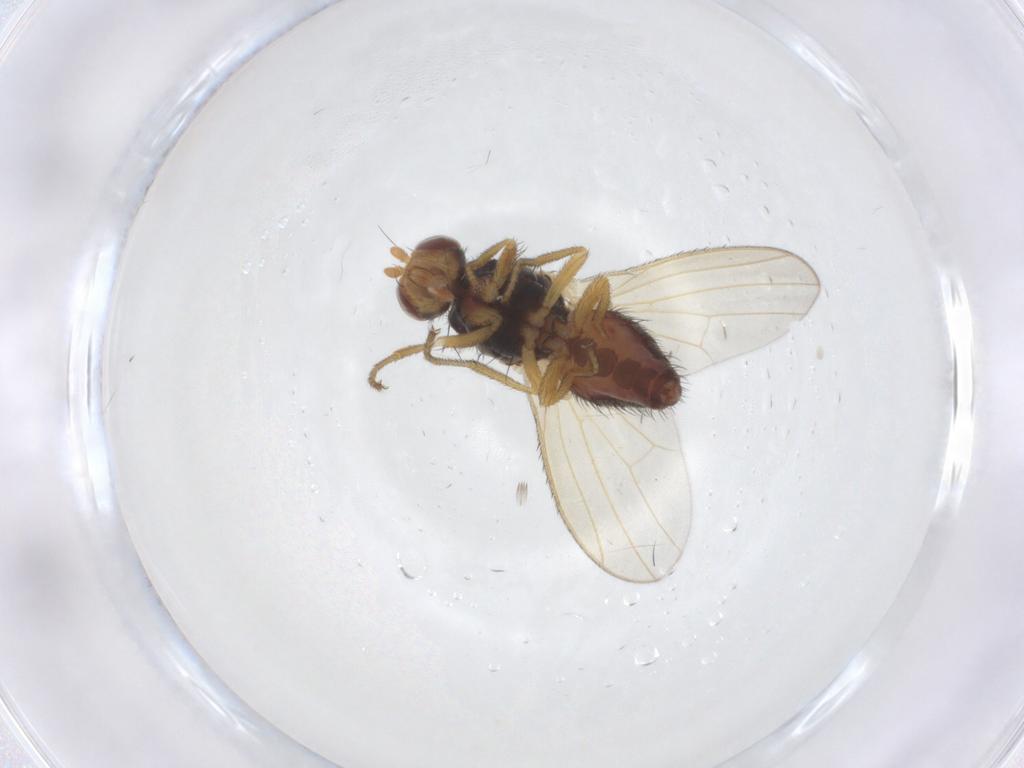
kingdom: Animalia
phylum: Arthropoda
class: Insecta
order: Diptera
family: Heleomyzidae
